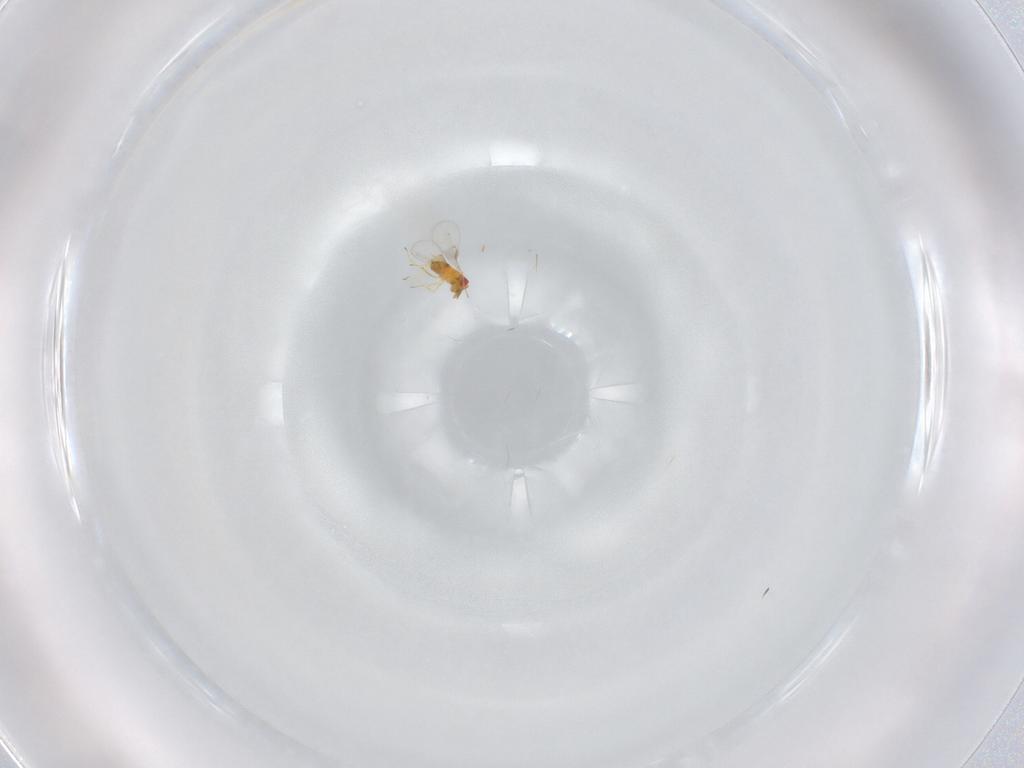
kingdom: Animalia
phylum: Arthropoda
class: Insecta
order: Hymenoptera
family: Trichogrammatidae
